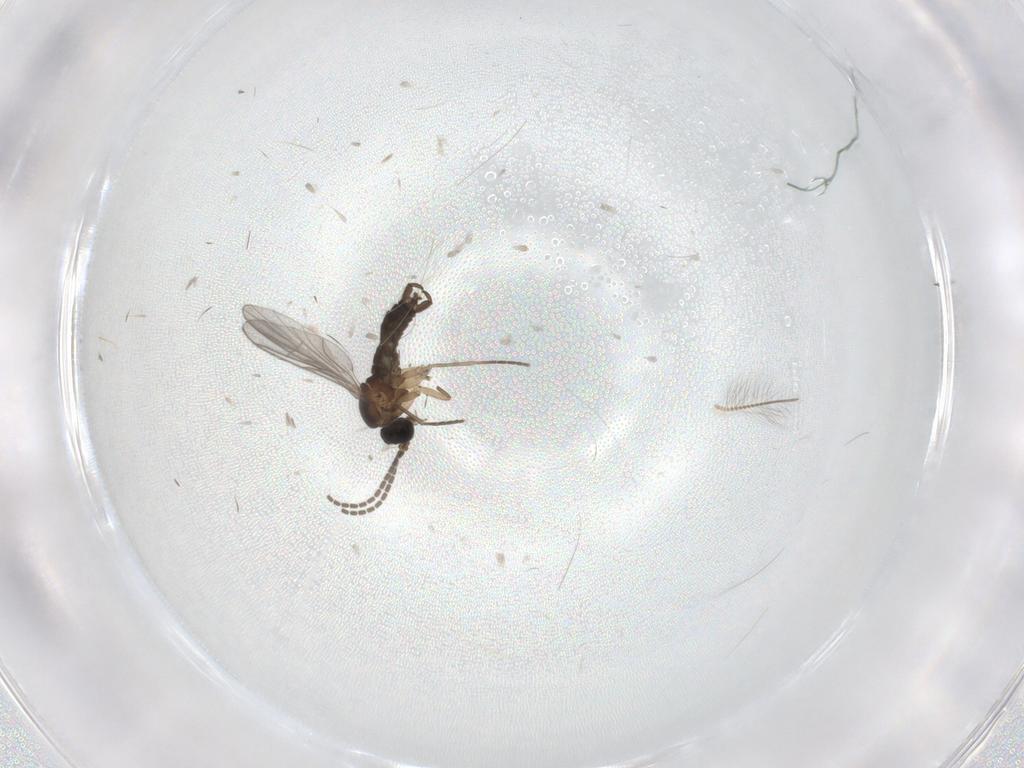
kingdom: Animalia
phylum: Arthropoda
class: Insecta
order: Diptera
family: Sciaridae
